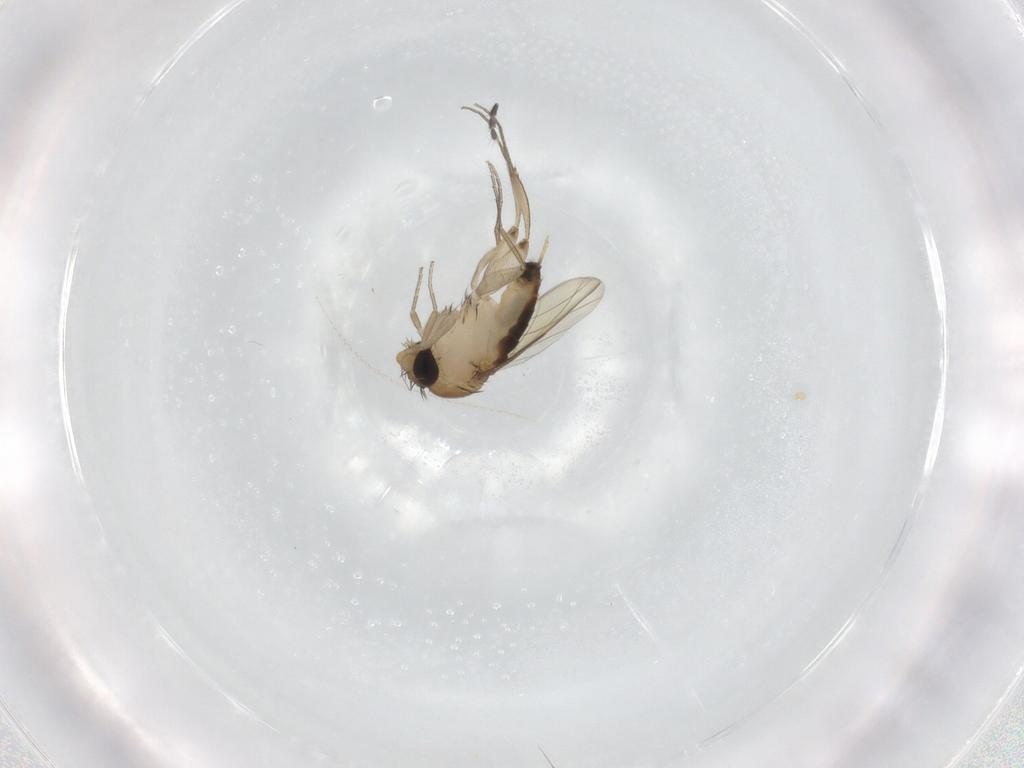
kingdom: Animalia
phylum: Arthropoda
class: Insecta
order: Diptera
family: Phoridae
